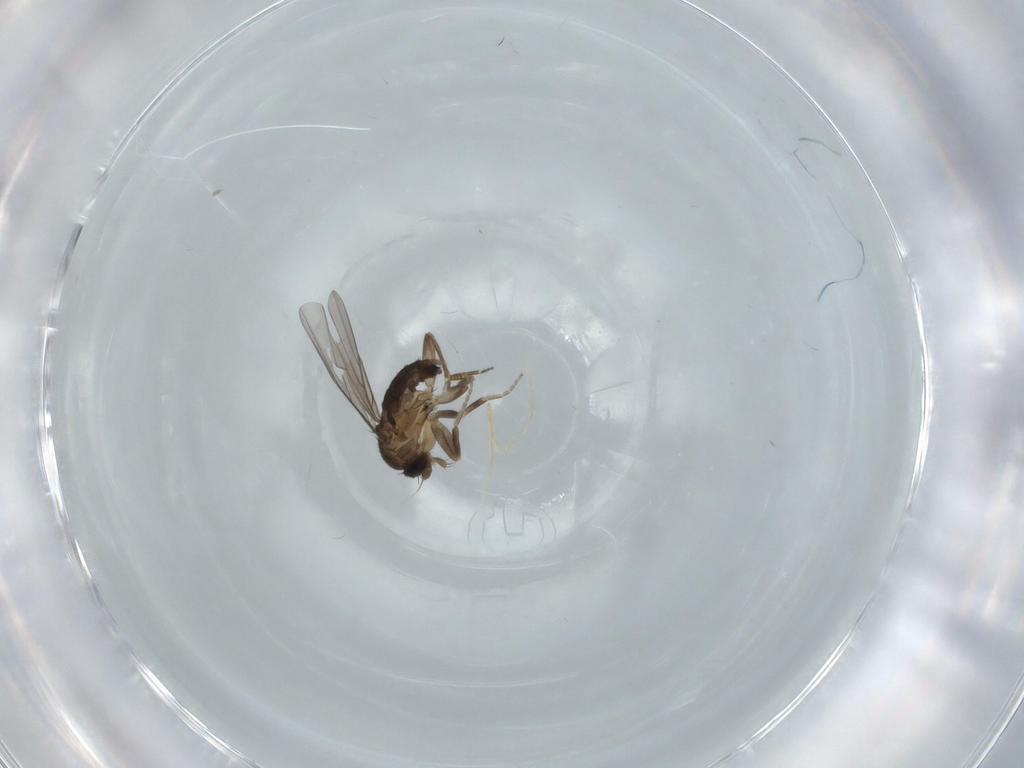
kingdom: Animalia
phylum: Arthropoda
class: Insecta
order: Diptera
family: Phoridae
